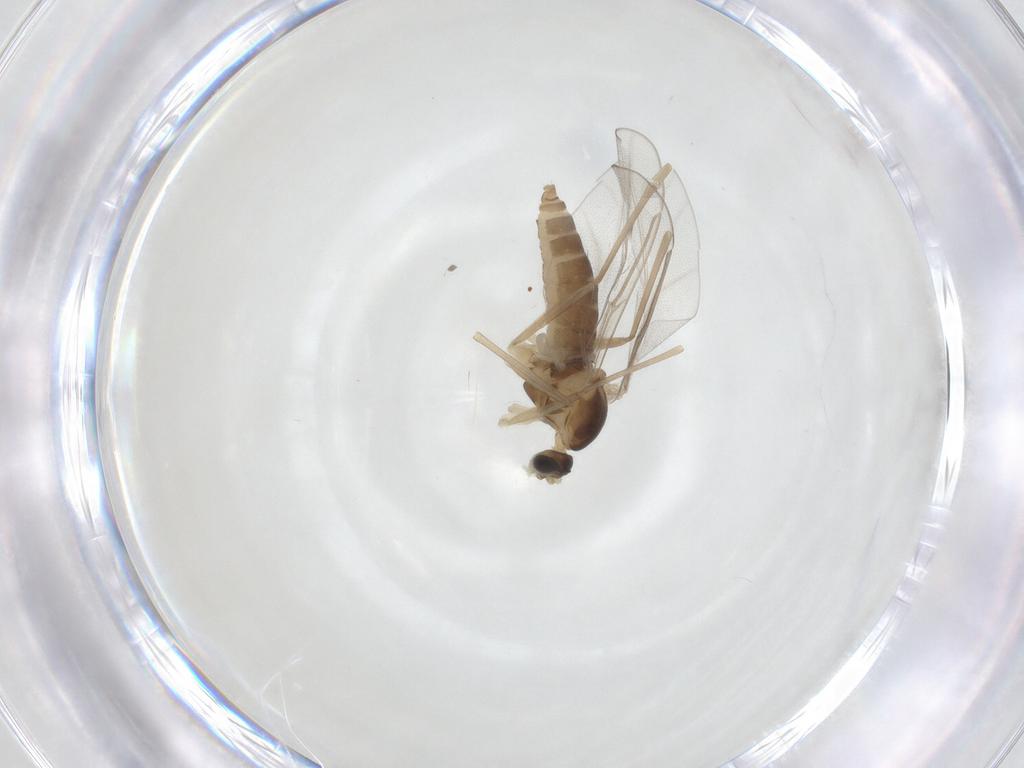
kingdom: Animalia
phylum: Arthropoda
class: Insecta
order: Diptera
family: Cecidomyiidae
